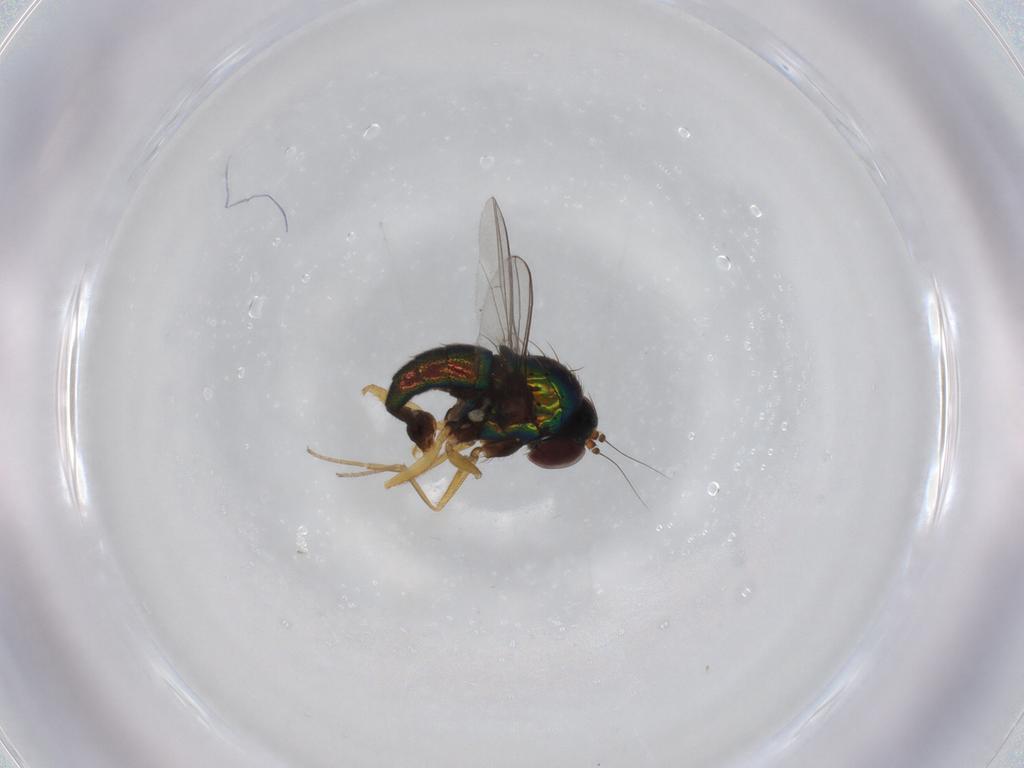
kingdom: Animalia
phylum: Arthropoda
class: Insecta
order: Diptera
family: Dolichopodidae
